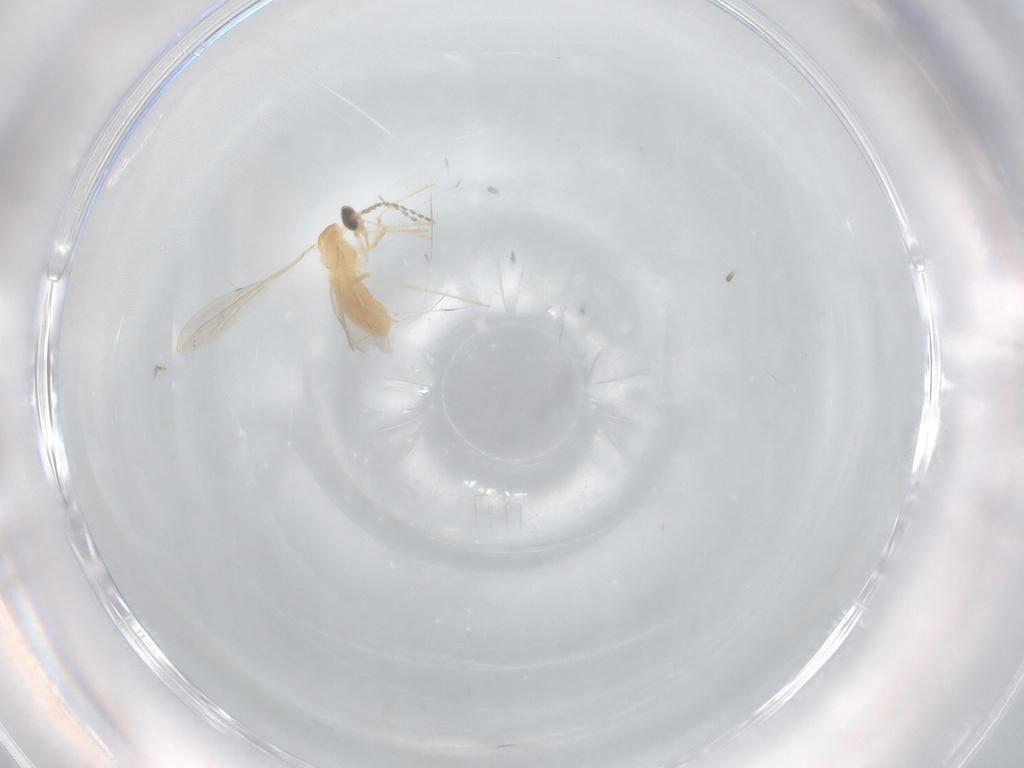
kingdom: Animalia
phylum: Arthropoda
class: Insecta
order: Diptera
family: Cecidomyiidae
